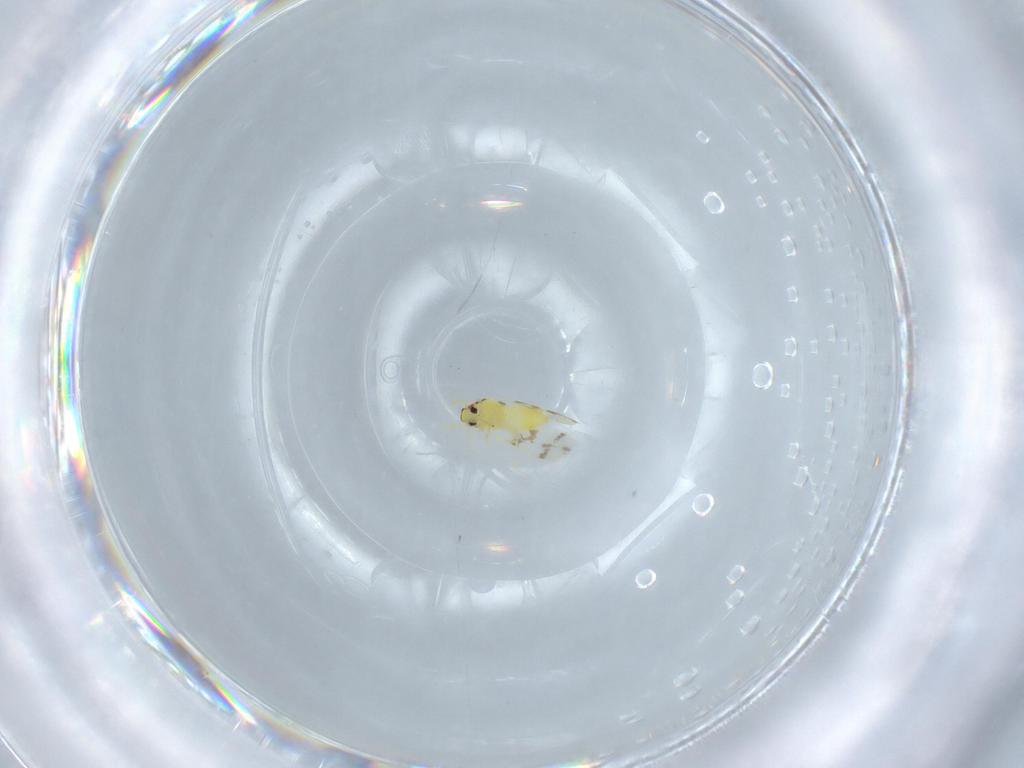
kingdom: Animalia
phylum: Arthropoda
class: Insecta
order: Hemiptera
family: Aleyrodidae
